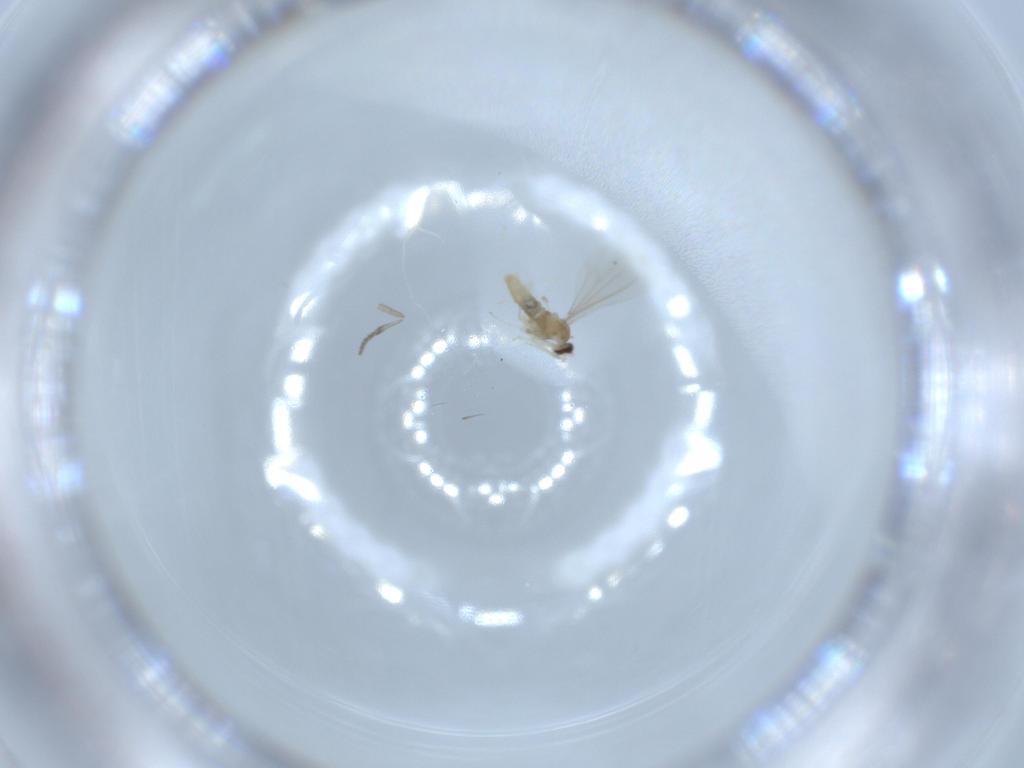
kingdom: Animalia
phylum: Arthropoda
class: Insecta
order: Diptera
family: Cecidomyiidae
